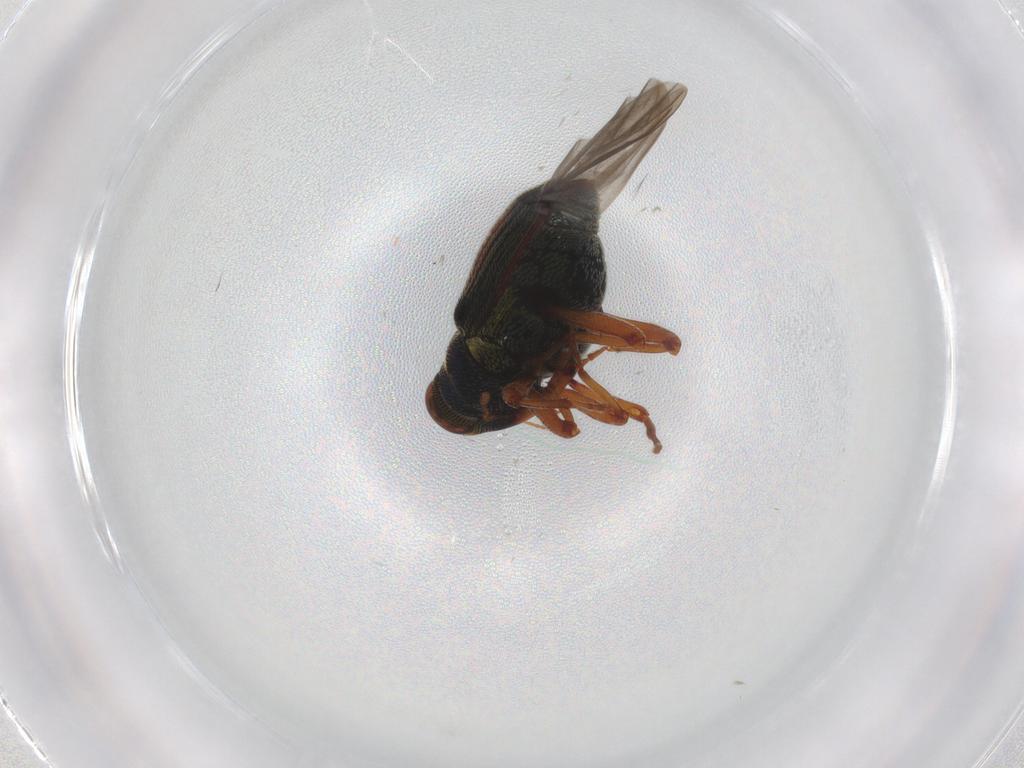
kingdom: Animalia
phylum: Arthropoda
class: Insecta
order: Coleoptera
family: Curculionidae
